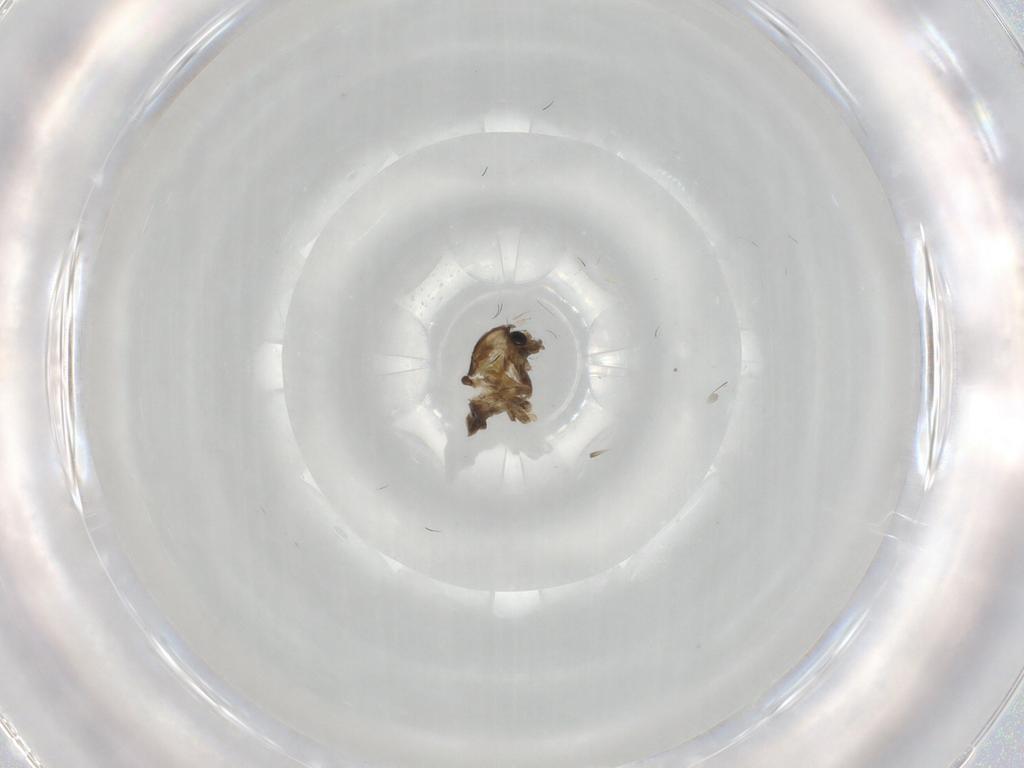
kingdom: Animalia
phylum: Arthropoda
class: Insecta
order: Diptera
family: Chironomidae
